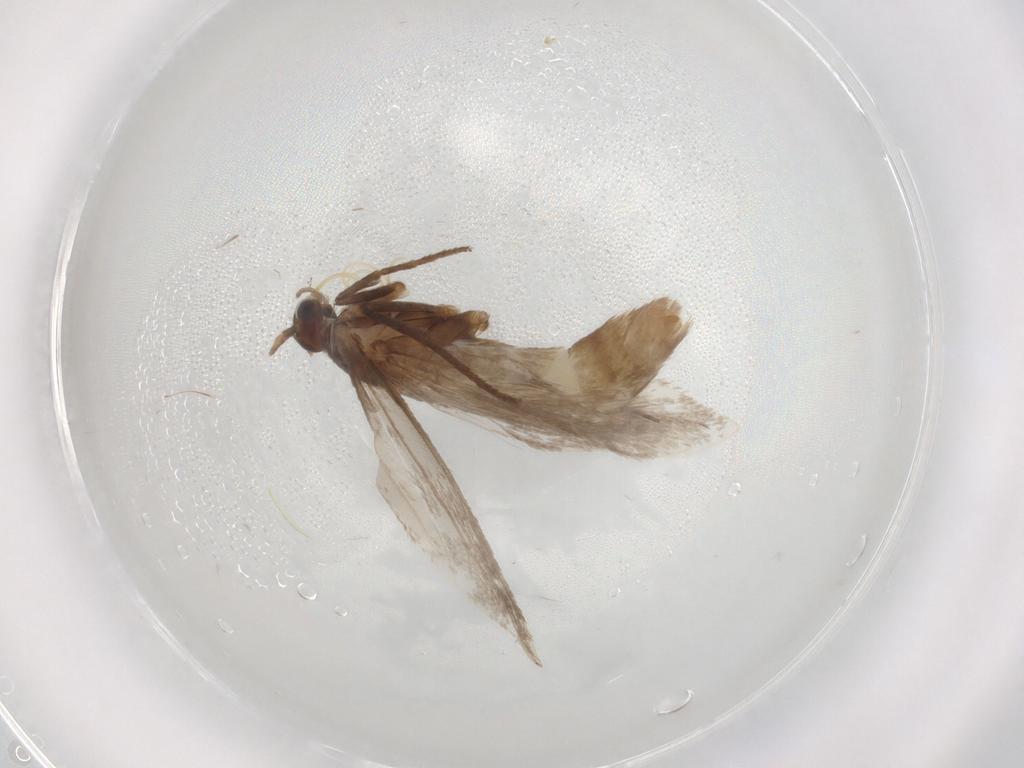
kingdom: Animalia
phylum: Arthropoda
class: Insecta
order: Lepidoptera
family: Limacodidae
